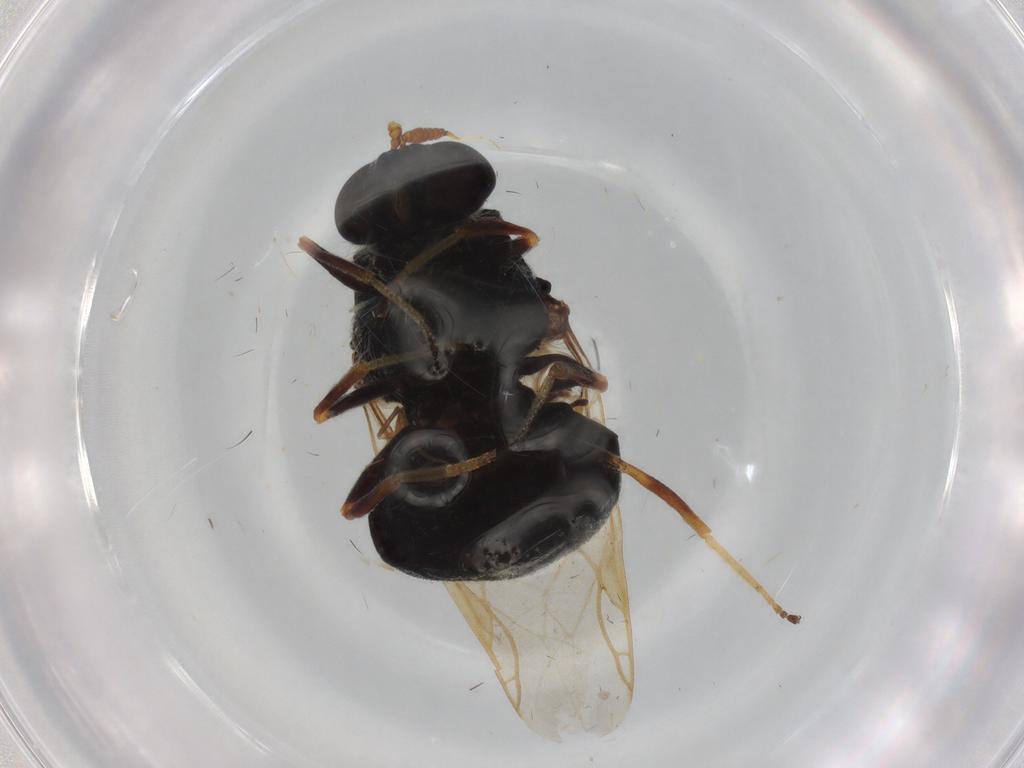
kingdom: Animalia
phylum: Arthropoda
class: Insecta
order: Diptera
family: Stratiomyidae
